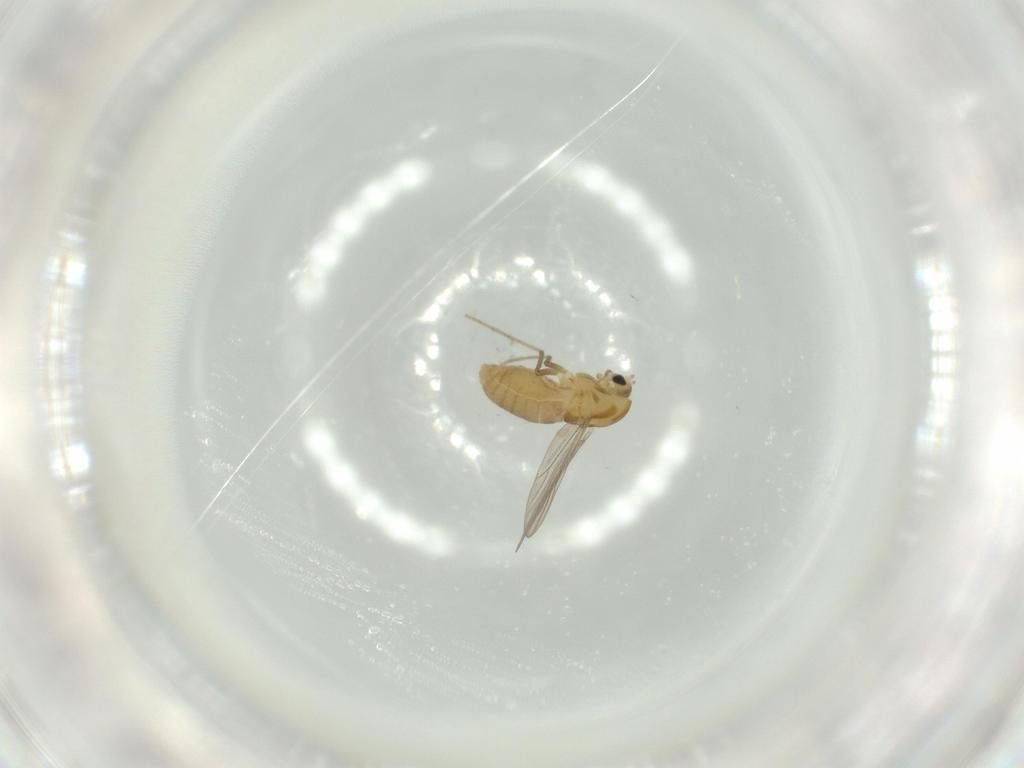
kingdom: Animalia
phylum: Arthropoda
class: Insecta
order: Diptera
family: Chironomidae
